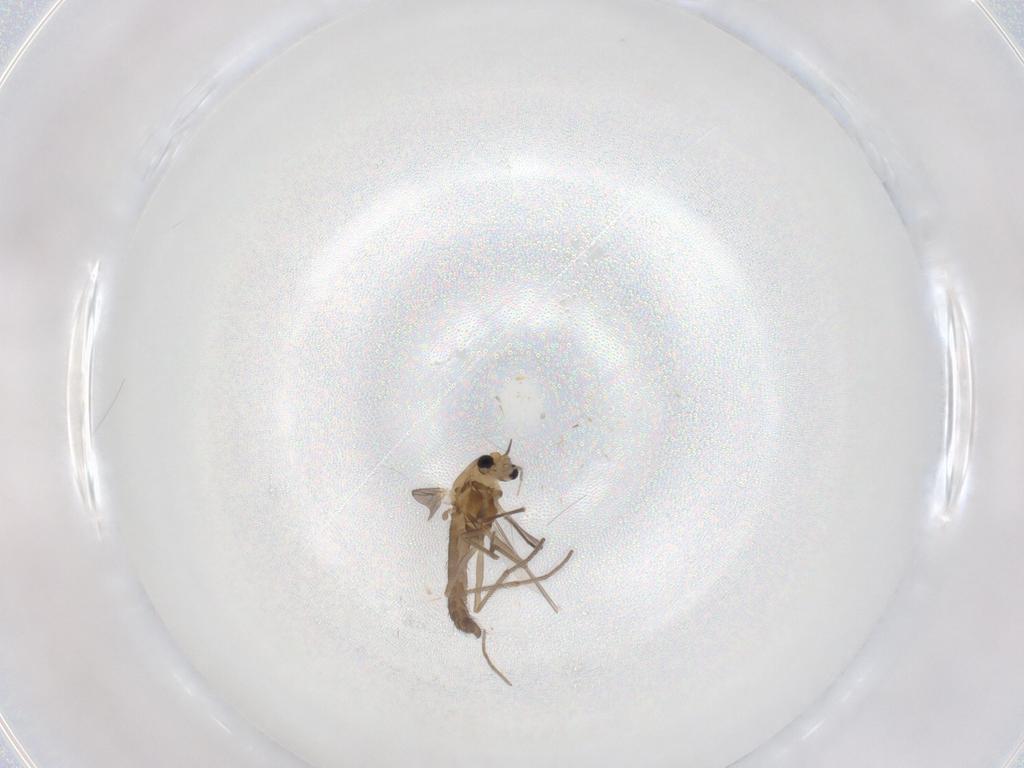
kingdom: Animalia
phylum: Arthropoda
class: Insecta
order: Diptera
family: Chironomidae
